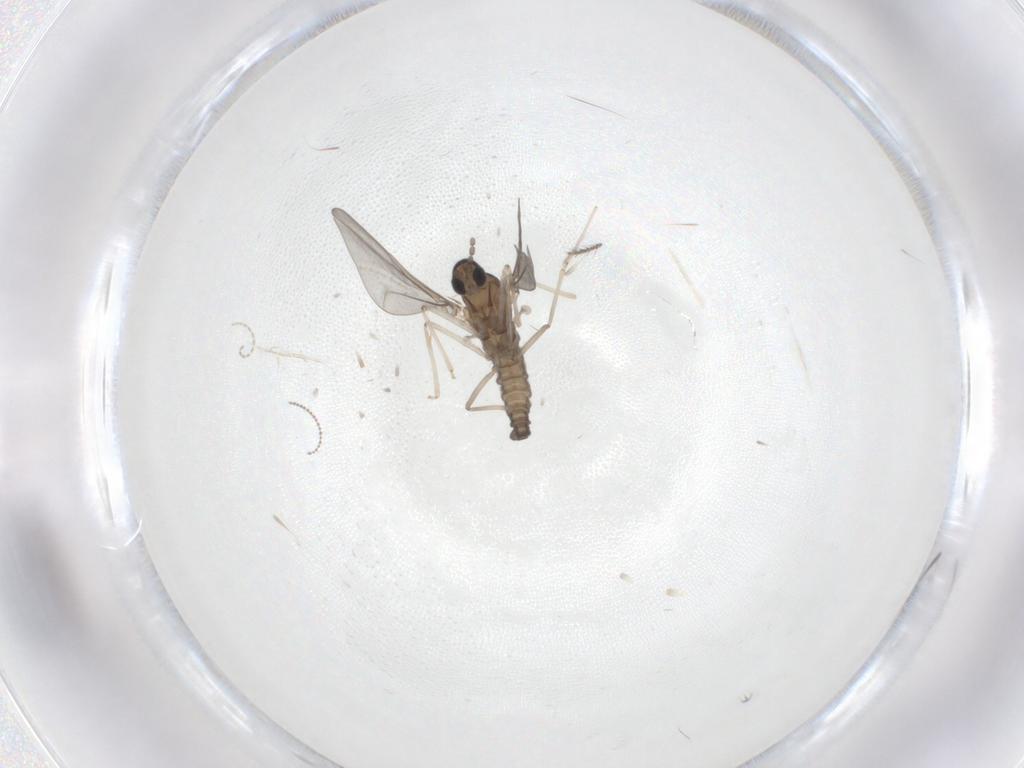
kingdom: Animalia
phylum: Arthropoda
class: Insecta
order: Diptera
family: Cecidomyiidae
